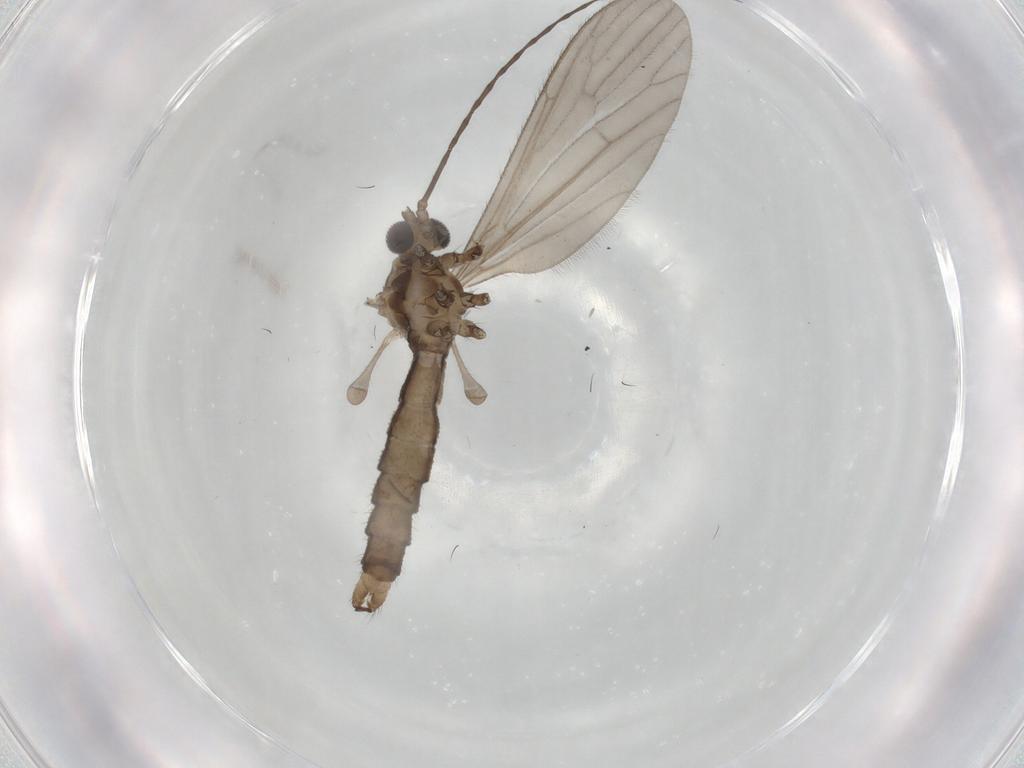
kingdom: Animalia
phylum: Arthropoda
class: Insecta
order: Diptera
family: Limoniidae
